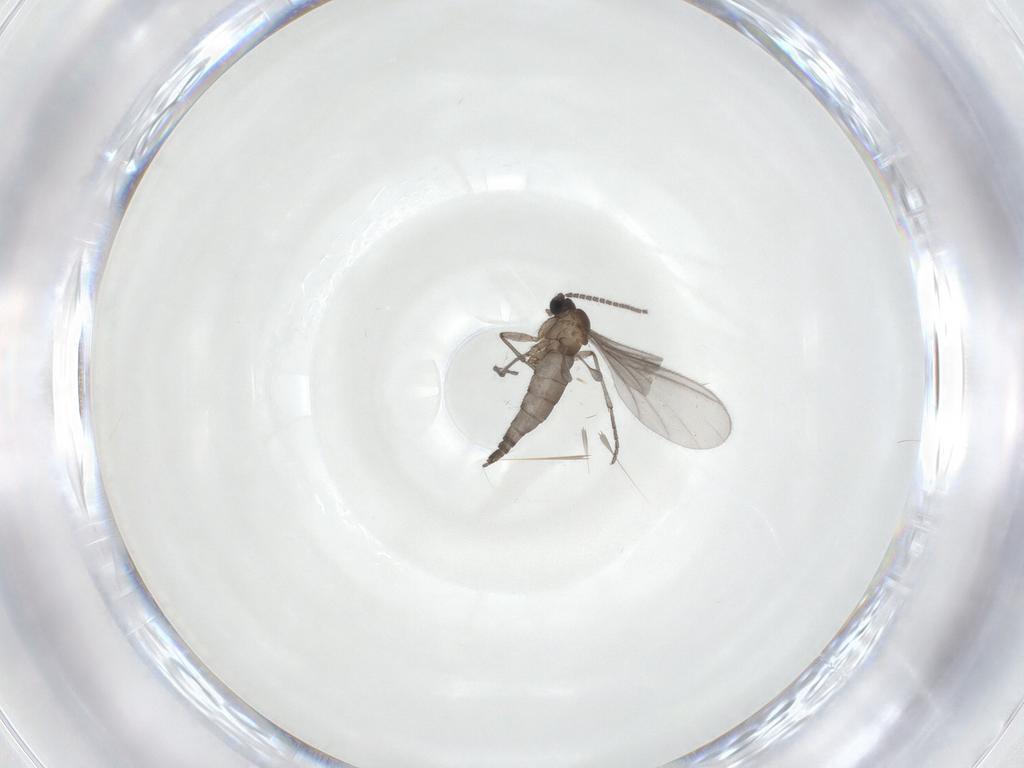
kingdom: Animalia
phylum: Arthropoda
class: Insecta
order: Diptera
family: Sciaridae
